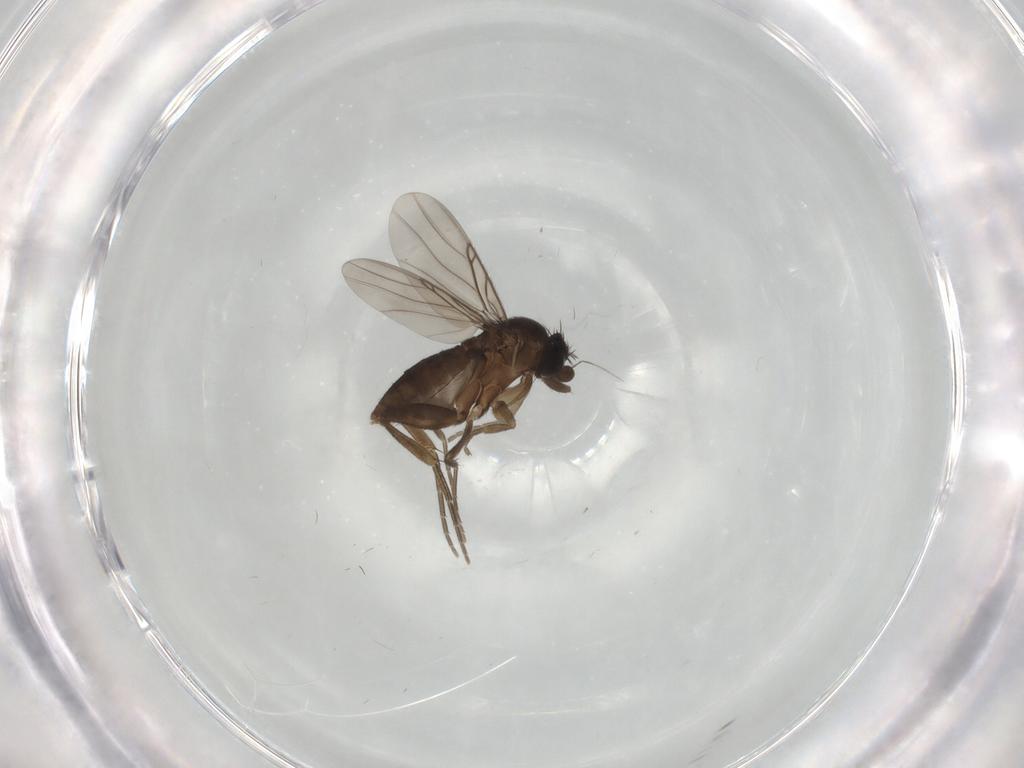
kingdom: Animalia
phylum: Arthropoda
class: Insecta
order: Diptera
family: Phoridae
